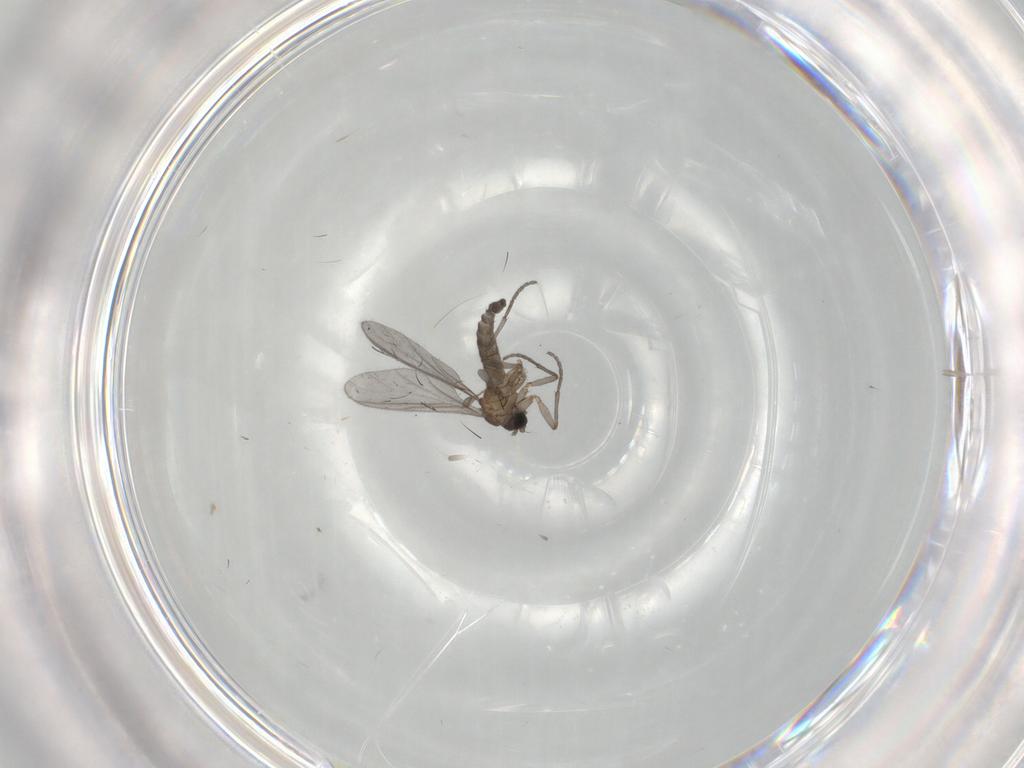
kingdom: Animalia
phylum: Arthropoda
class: Insecta
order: Diptera
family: Sciaridae
